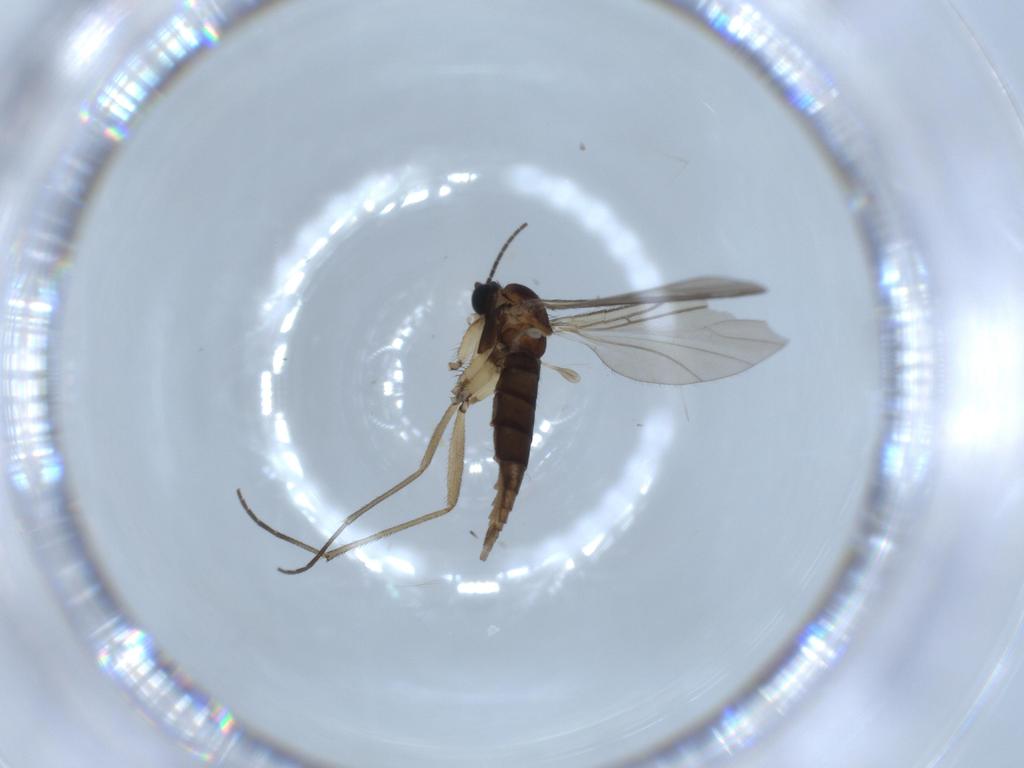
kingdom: Animalia
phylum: Arthropoda
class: Insecta
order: Diptera
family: Sciaridae
